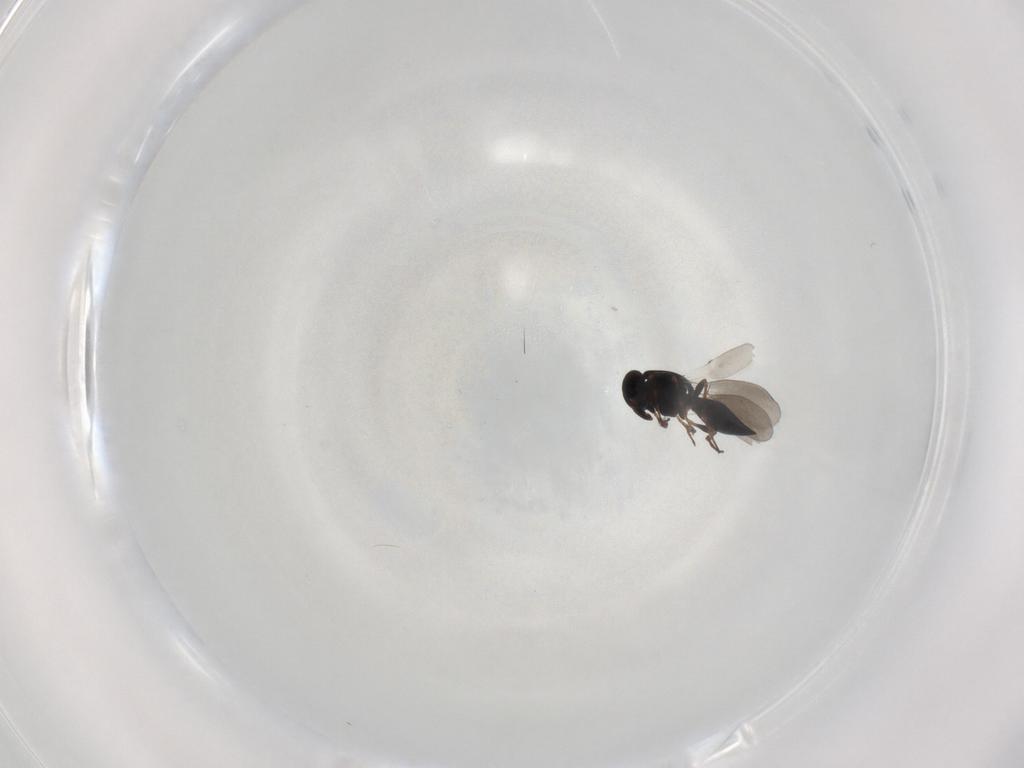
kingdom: Animalia
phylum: Arthropoda
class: Insecta
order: Hymenoptera
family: Platygastridae
